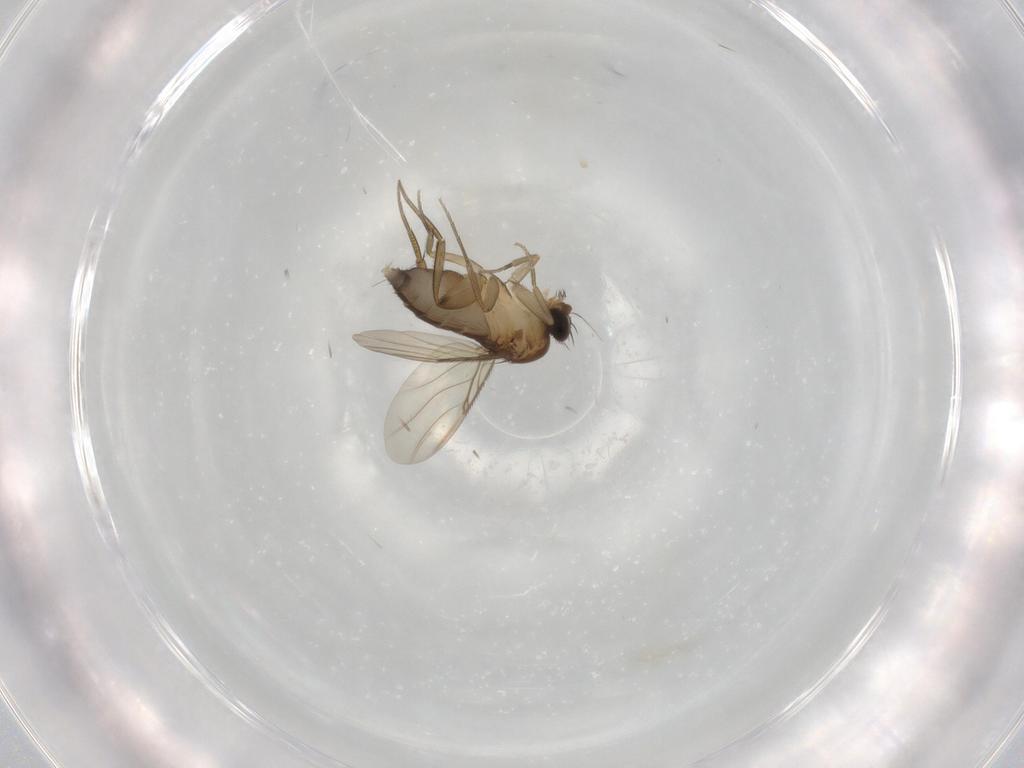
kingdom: Animalia
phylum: Arthropoda
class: Insecta
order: Diptera
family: Phoridae
